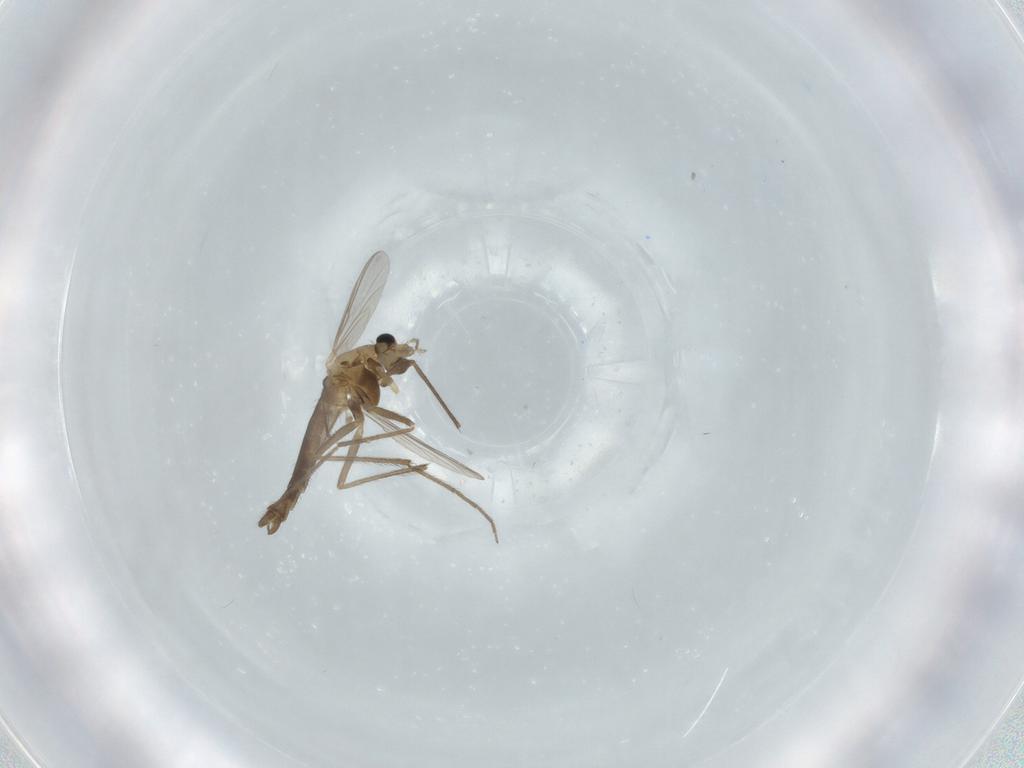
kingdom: Animalia
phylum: Arthropoda
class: Insecta
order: Diptera
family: Chironomidae
